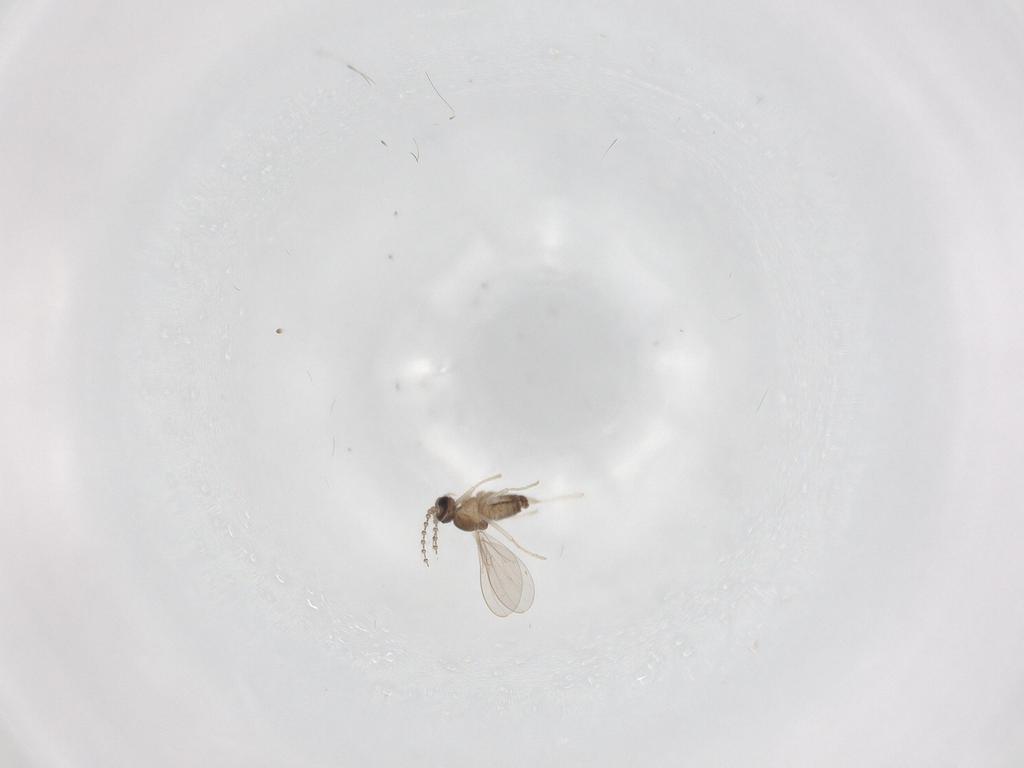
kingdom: Animalia
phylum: Arthropoda
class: Insecta
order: Diptera
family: Cecidomyiidae
